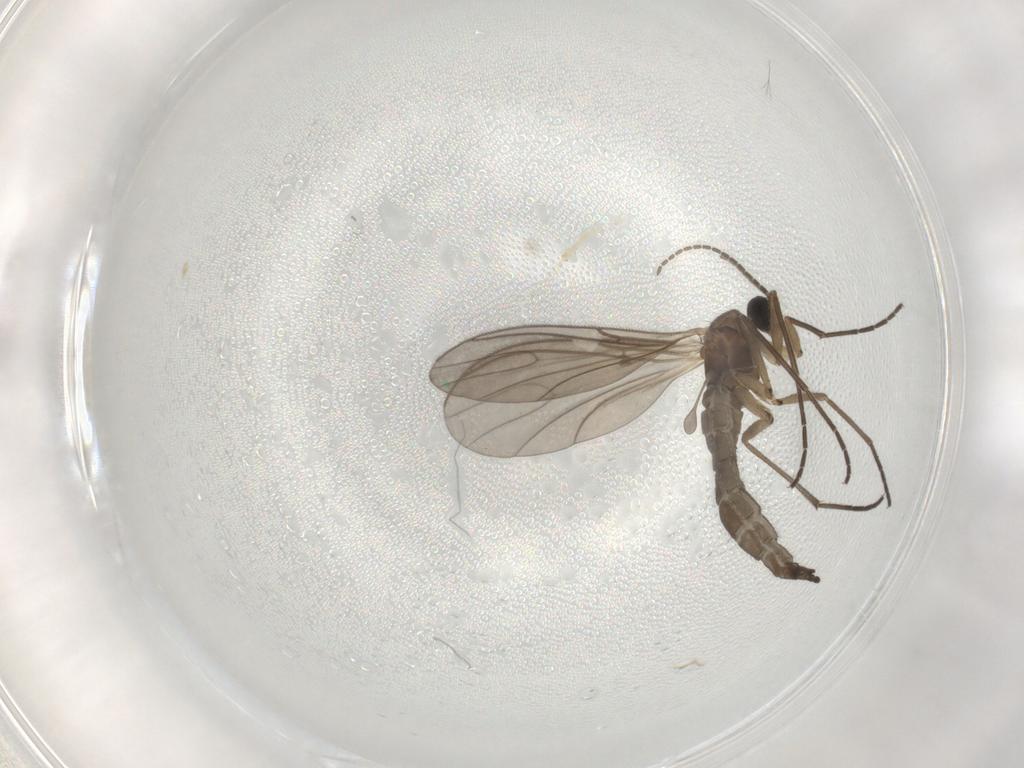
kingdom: Animalia
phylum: Arthropoda
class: Insecta
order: Diptera
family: Sciaridae
